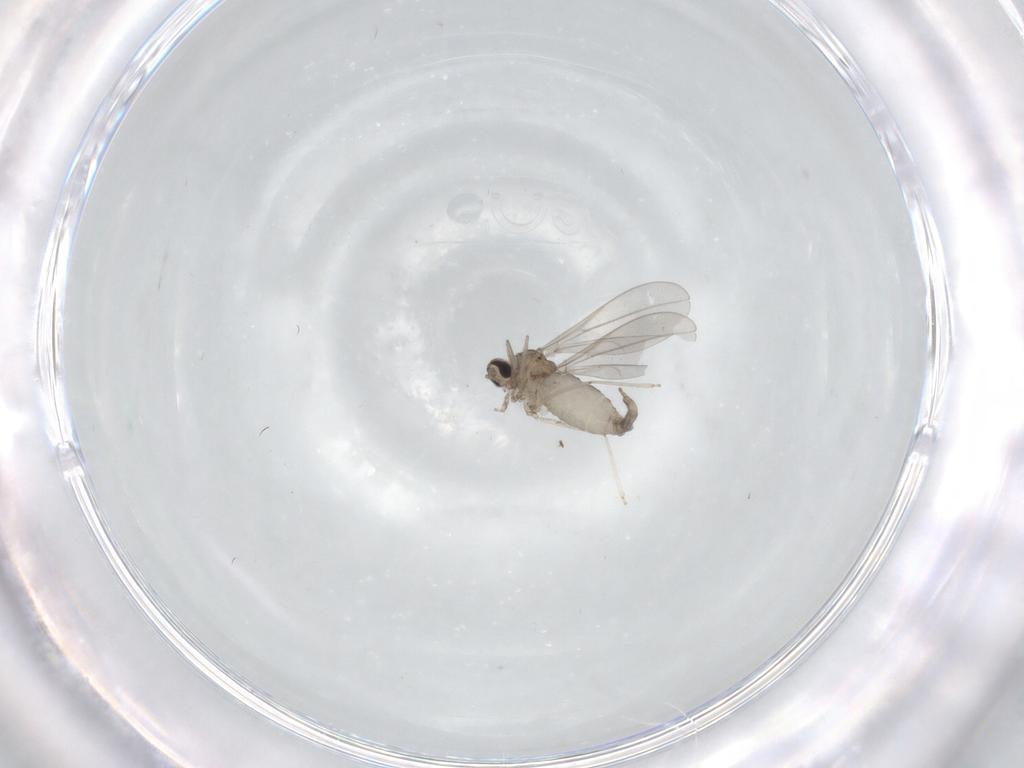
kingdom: Animalia
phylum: Arthropoda
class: Insecta
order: Diptera
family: Cecidomyiidae
